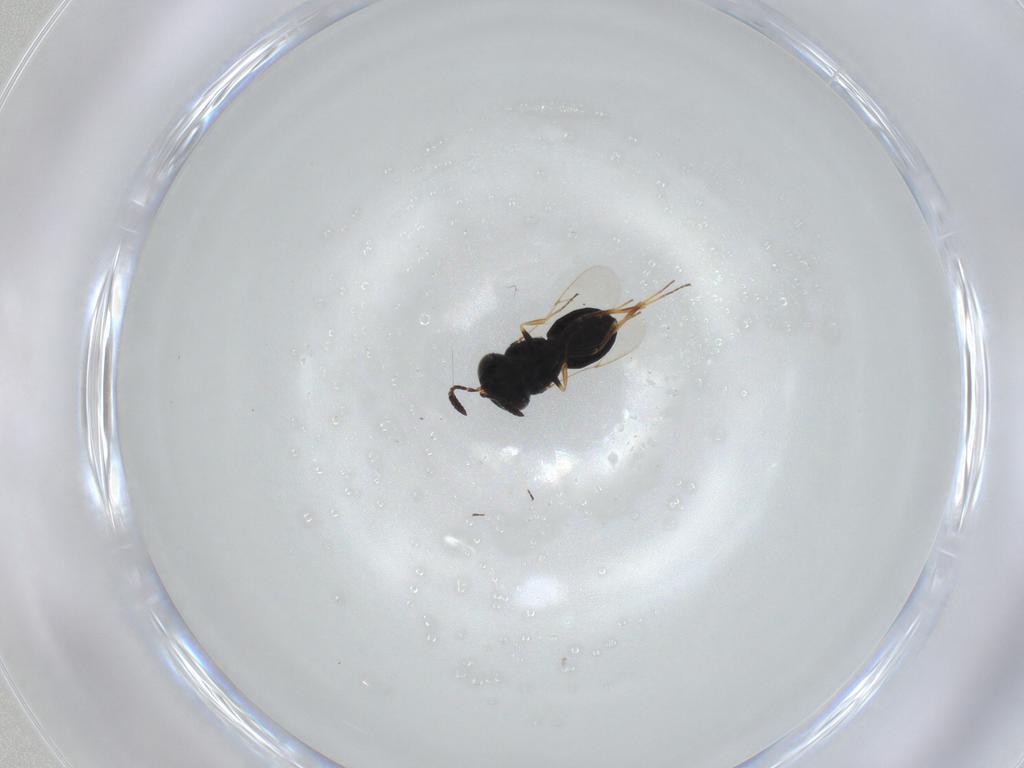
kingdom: Animalia
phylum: Arthropoda
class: Insecta
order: Hymenoptera
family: Scelionidae
